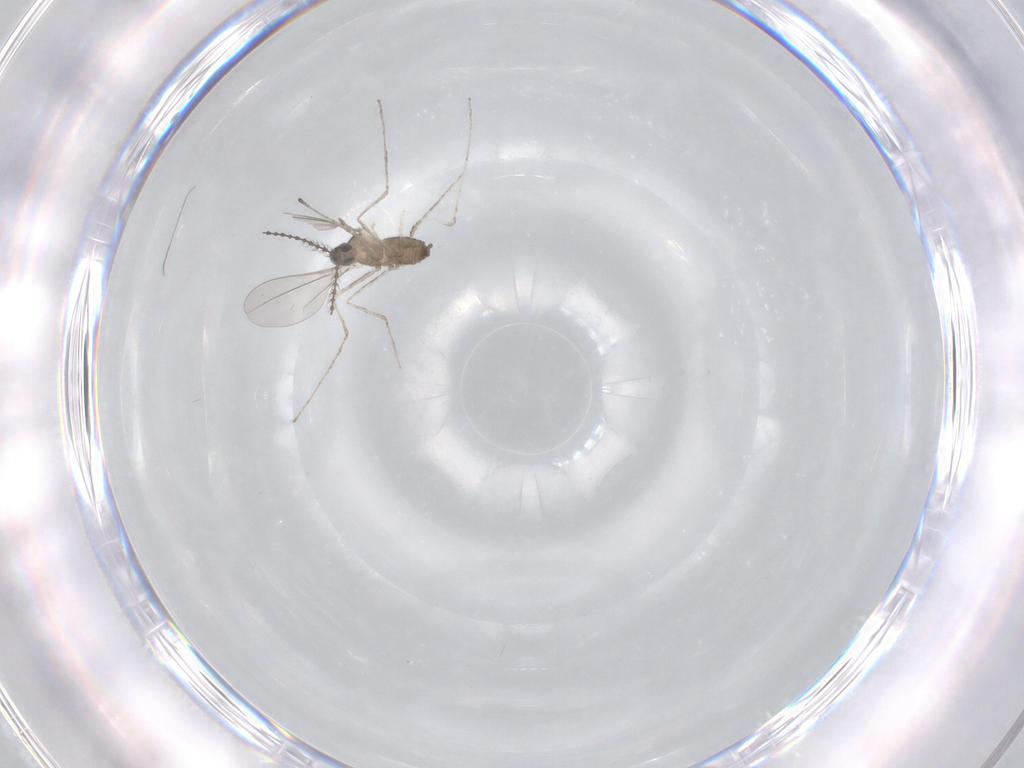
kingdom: Animalia
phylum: Arthropoda
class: Insecta
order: Diptera
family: Cecidomyiidae
